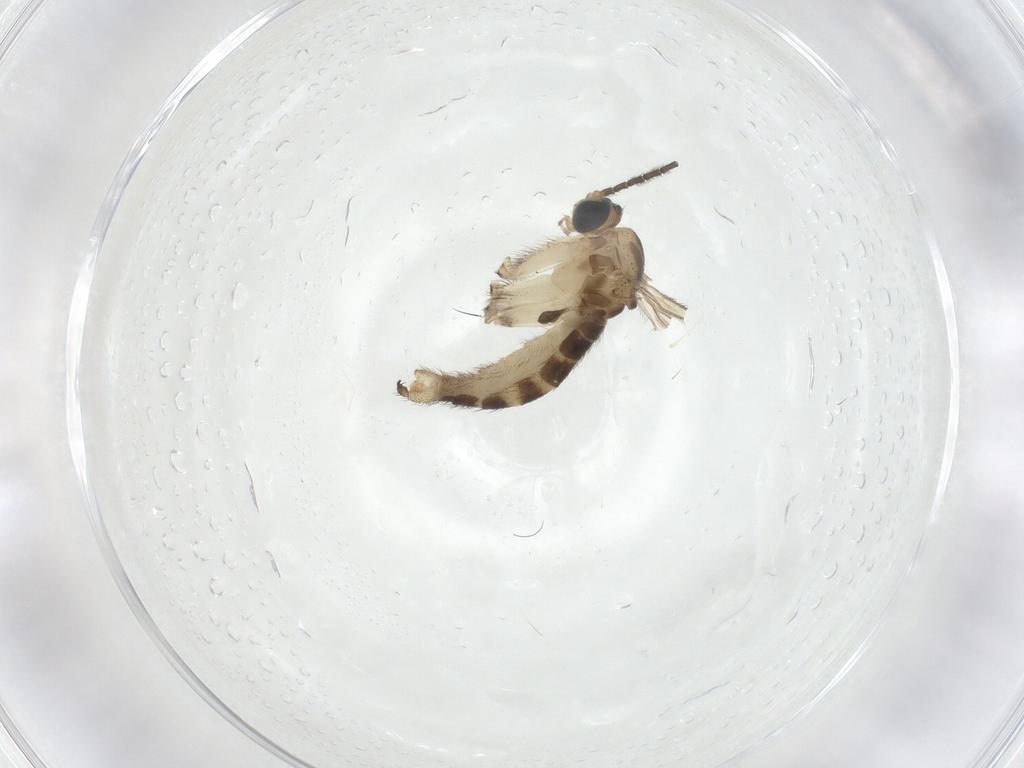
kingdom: Animalia
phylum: Arthropoda
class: Insecta
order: Diptera
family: Sciaridae
